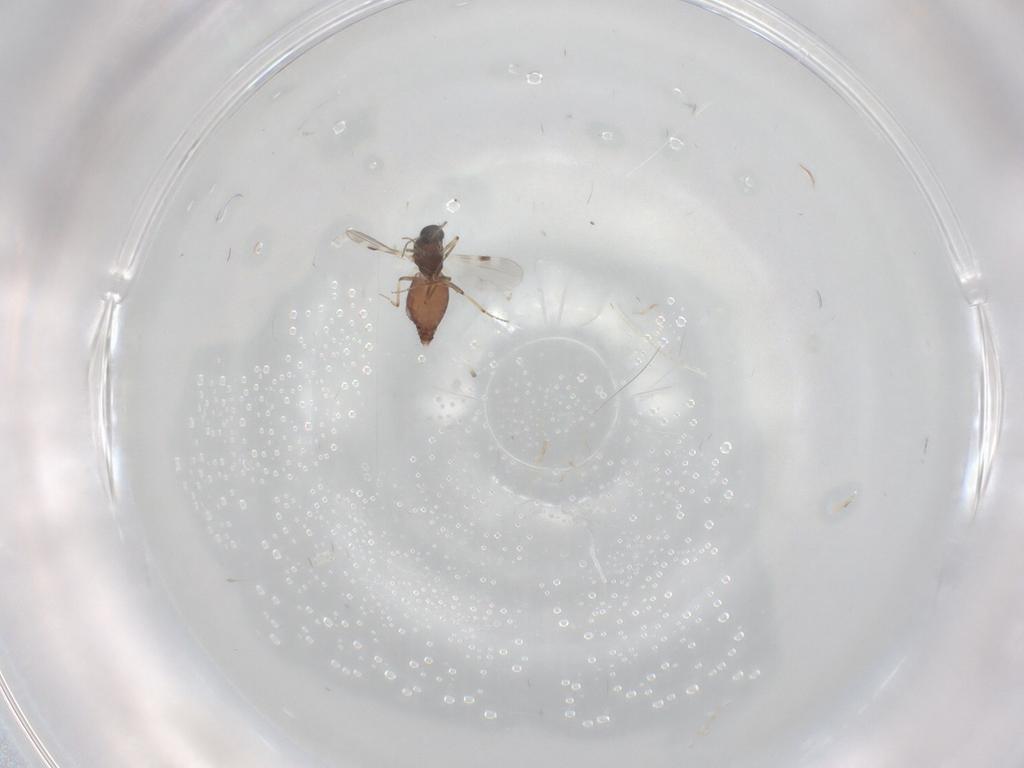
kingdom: Animalia
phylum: Arthropoda
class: Insecta
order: Diptera
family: Phoridae
